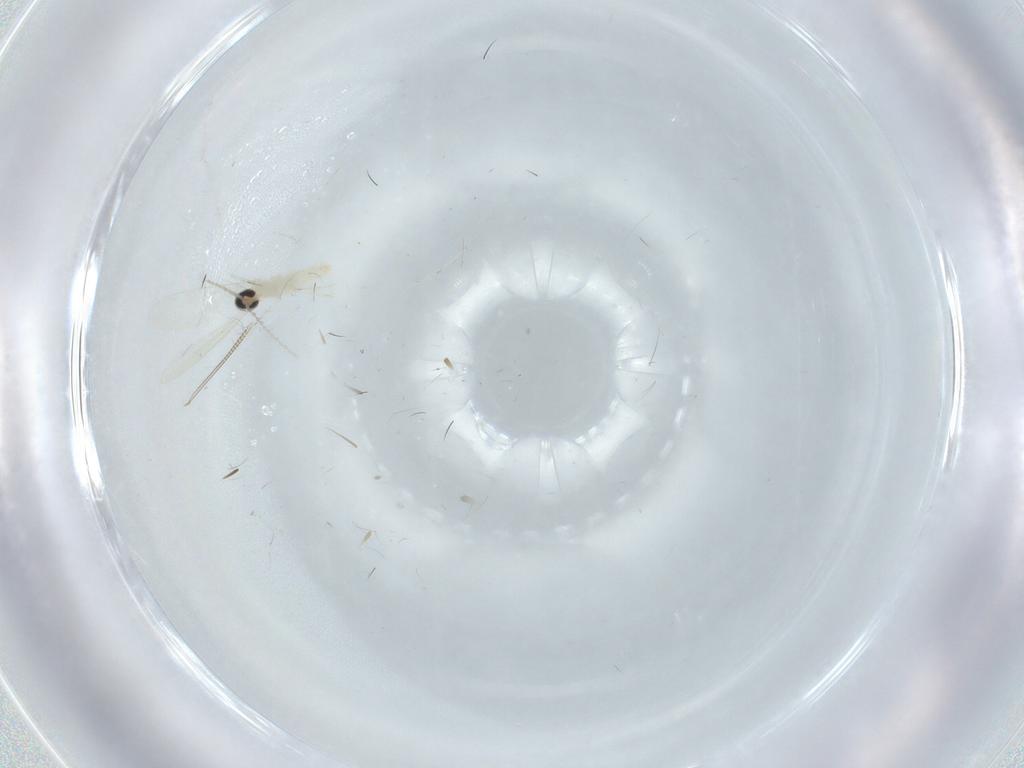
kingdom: Animalia
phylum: Arthropoda
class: Insecta
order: Diptera
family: Cecidomyiidae
